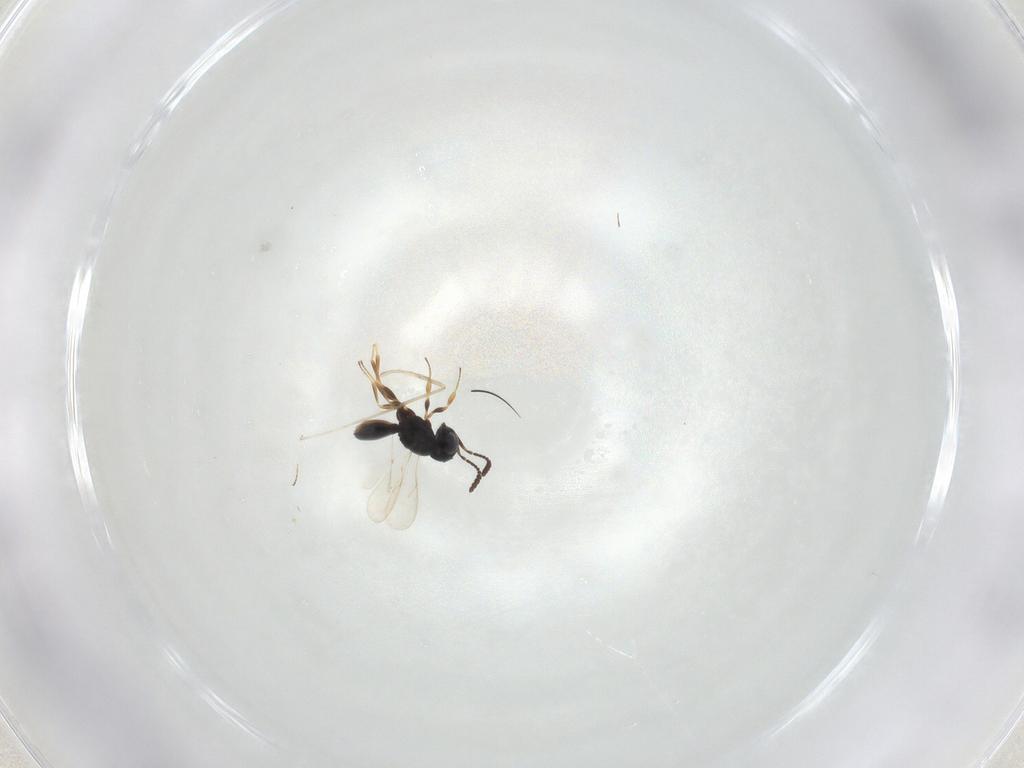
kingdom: Animalia
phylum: Arthropoda
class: Insecta
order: Hymenoptera
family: Scelionidae
